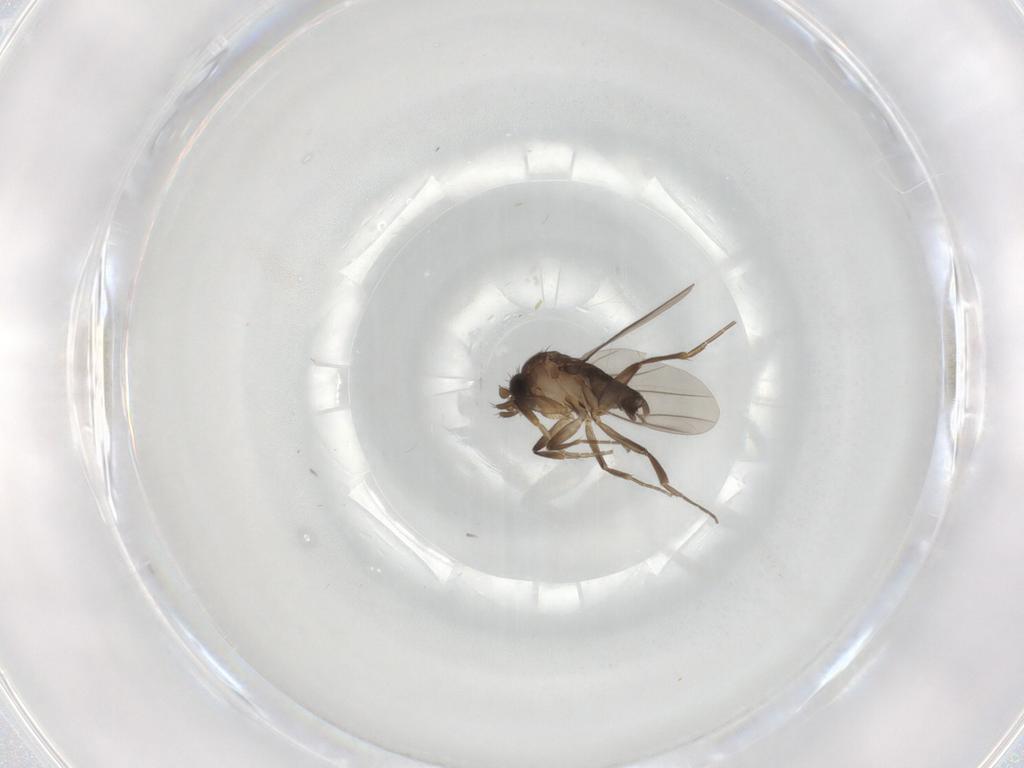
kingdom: Animalia
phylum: Arthropoda
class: Insecta
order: Diptera
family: Phoridae
